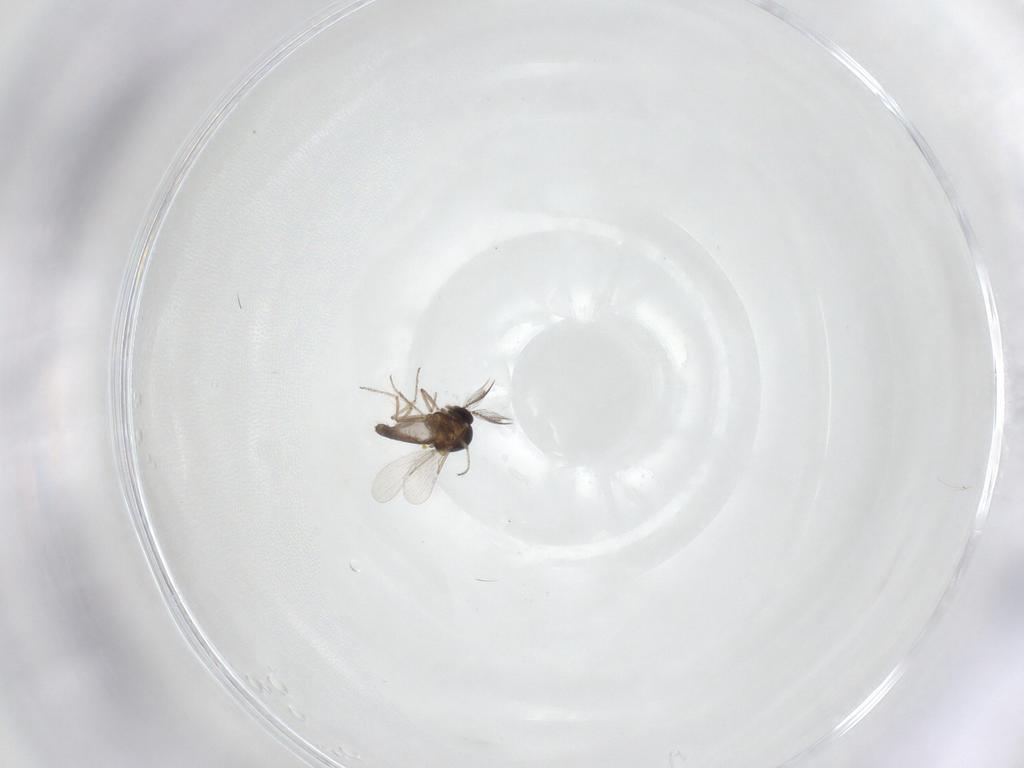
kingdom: Animalia
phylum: Arthropoda
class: Insecta
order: Diptera
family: Ceratopogonidae
